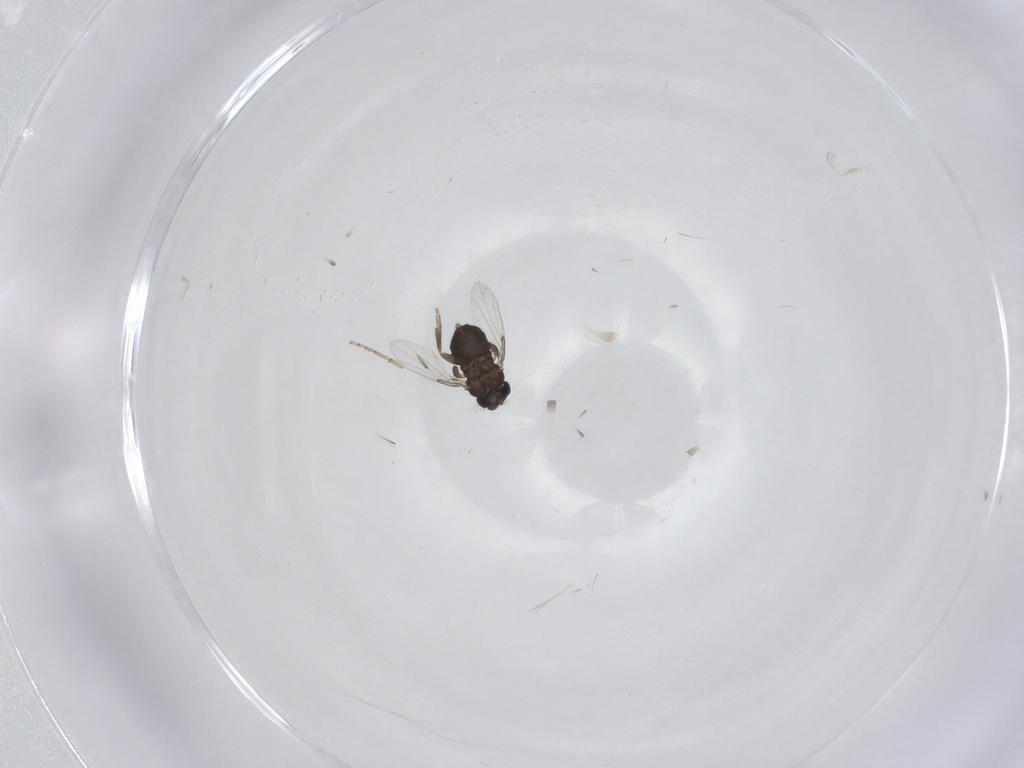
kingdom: Animalia
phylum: Arthropoda
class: Insecta
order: Diptera
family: Ceratopogonidae
